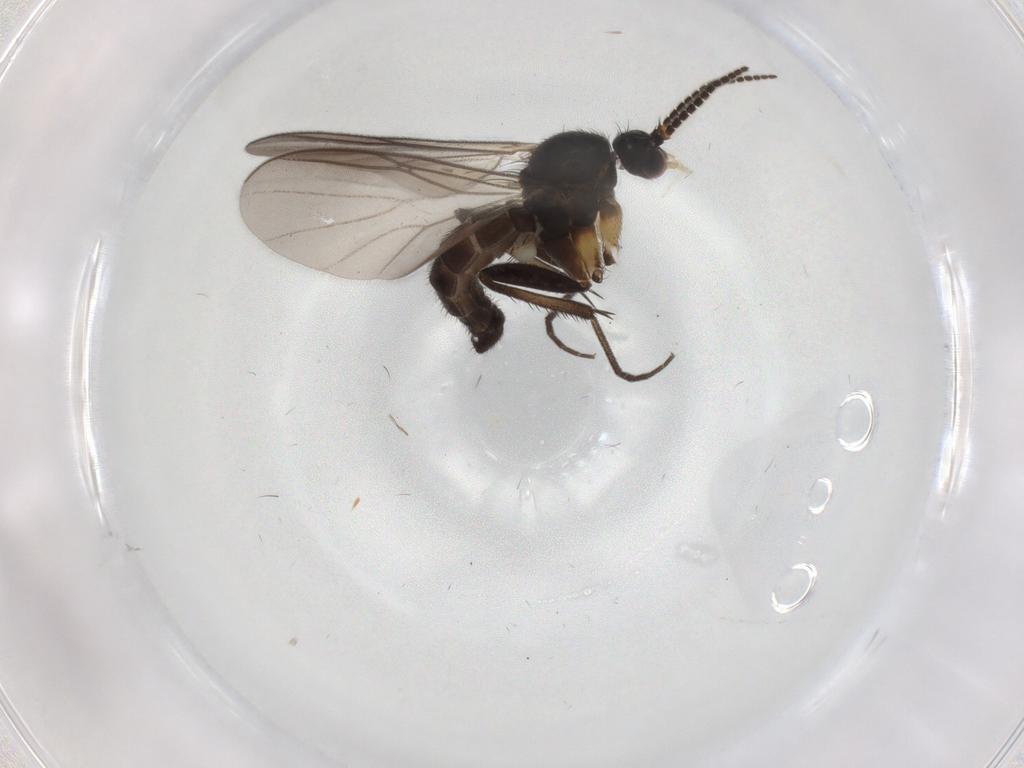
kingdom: Animalia
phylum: Arthropoda
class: Insecta
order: Diptera
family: Mycetophilidae
